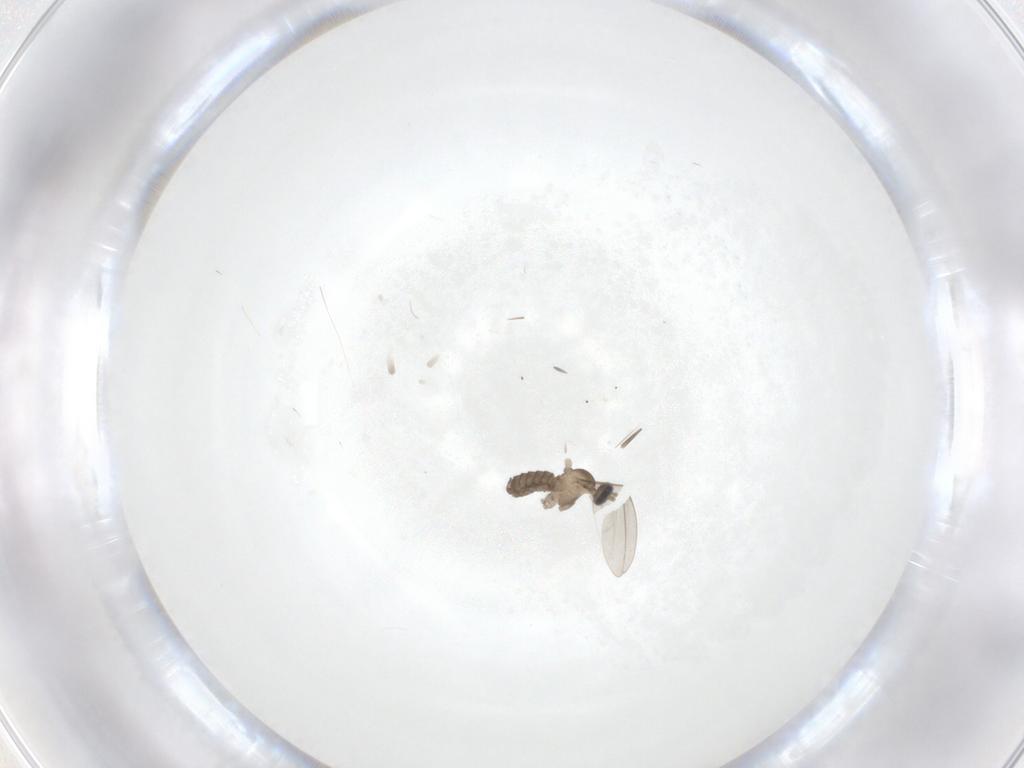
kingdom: Animalia
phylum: Arthropoda
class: Insecta
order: Diptera
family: Cecidomyiidae
